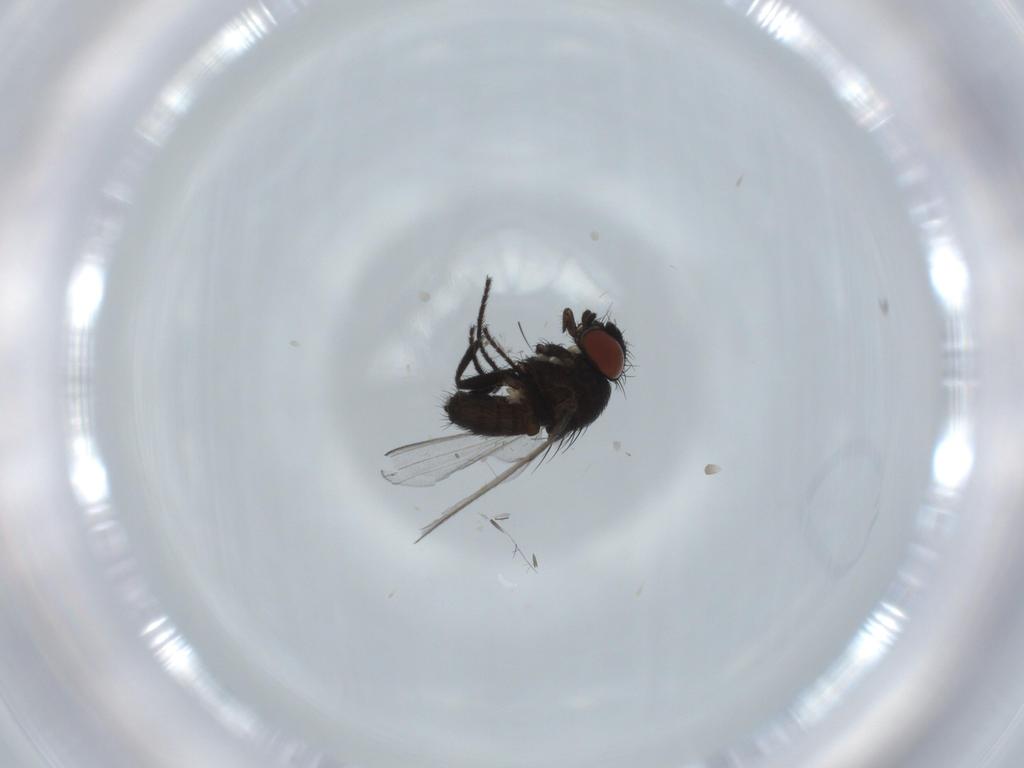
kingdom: Animalia
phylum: Arthropoda
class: Insecta
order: Diptera
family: Milichiidae
